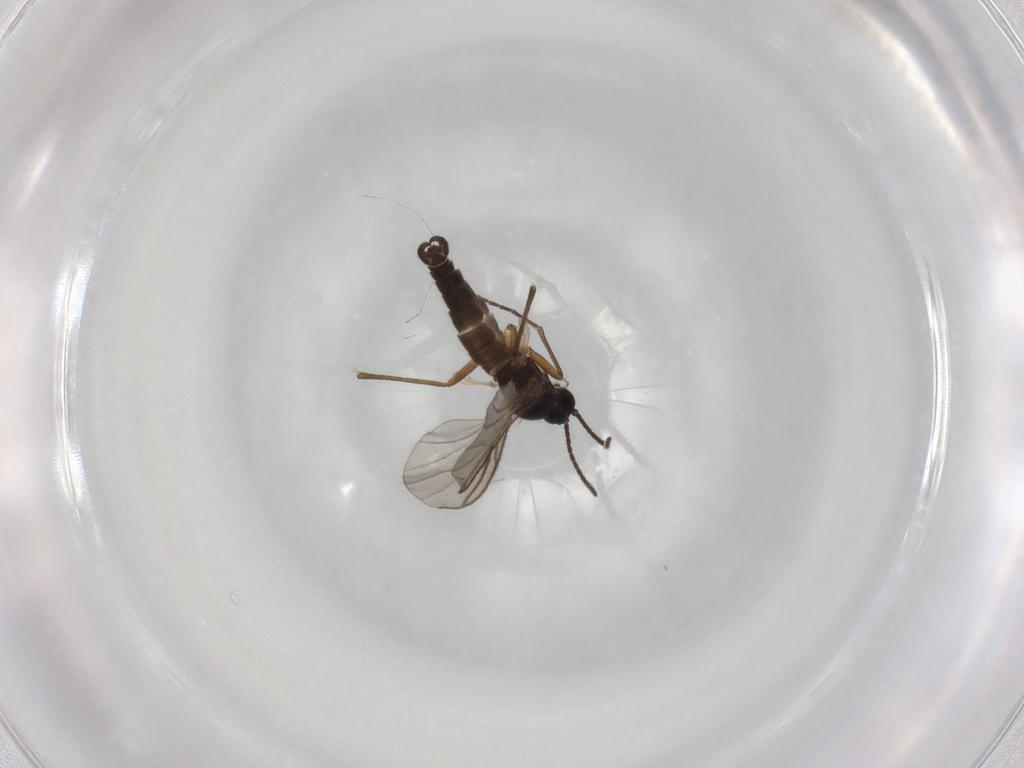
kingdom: Animalia
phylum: Arthropoda
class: Insecta
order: Diptera
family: Sciaridae
